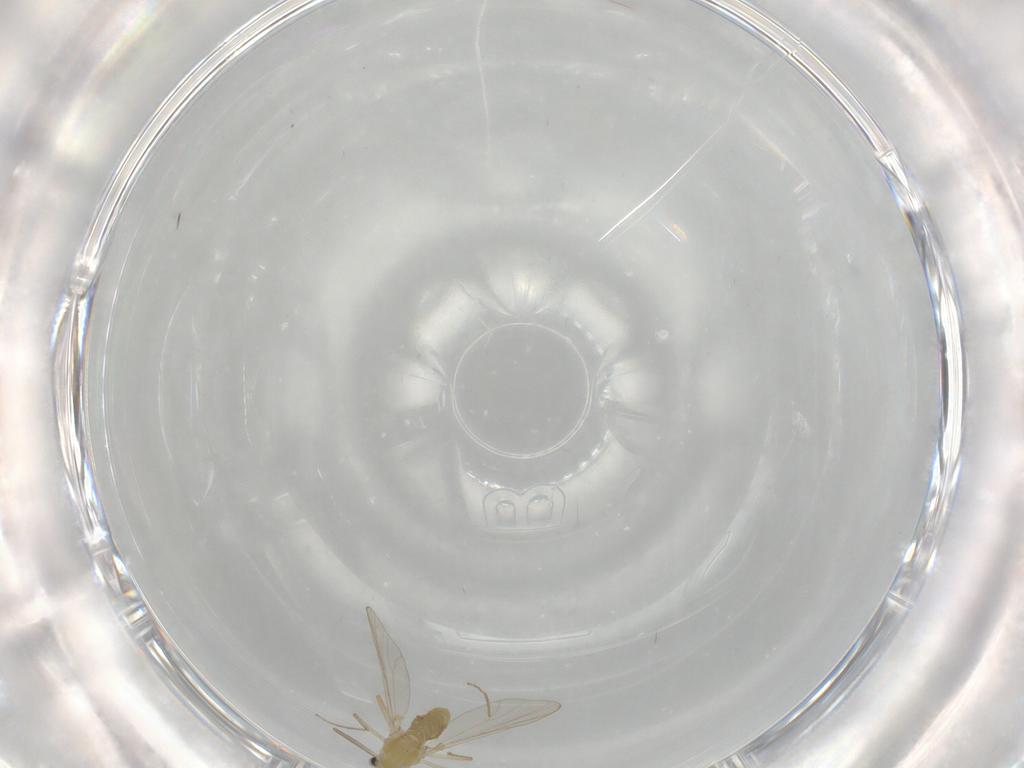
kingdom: Animalia
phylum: Arthropoda
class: Insecta
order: Diptera
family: Chironomidae
